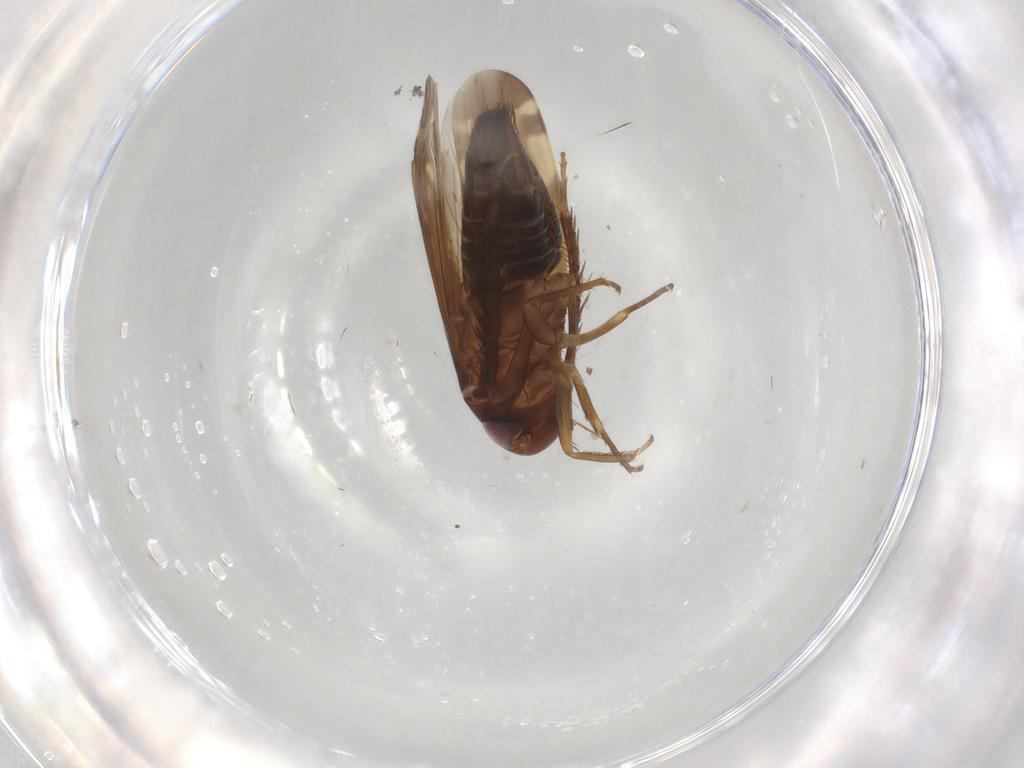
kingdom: Animalia
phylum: Arthropoda
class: Insecta
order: Hemiptera
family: Cicadellidae
